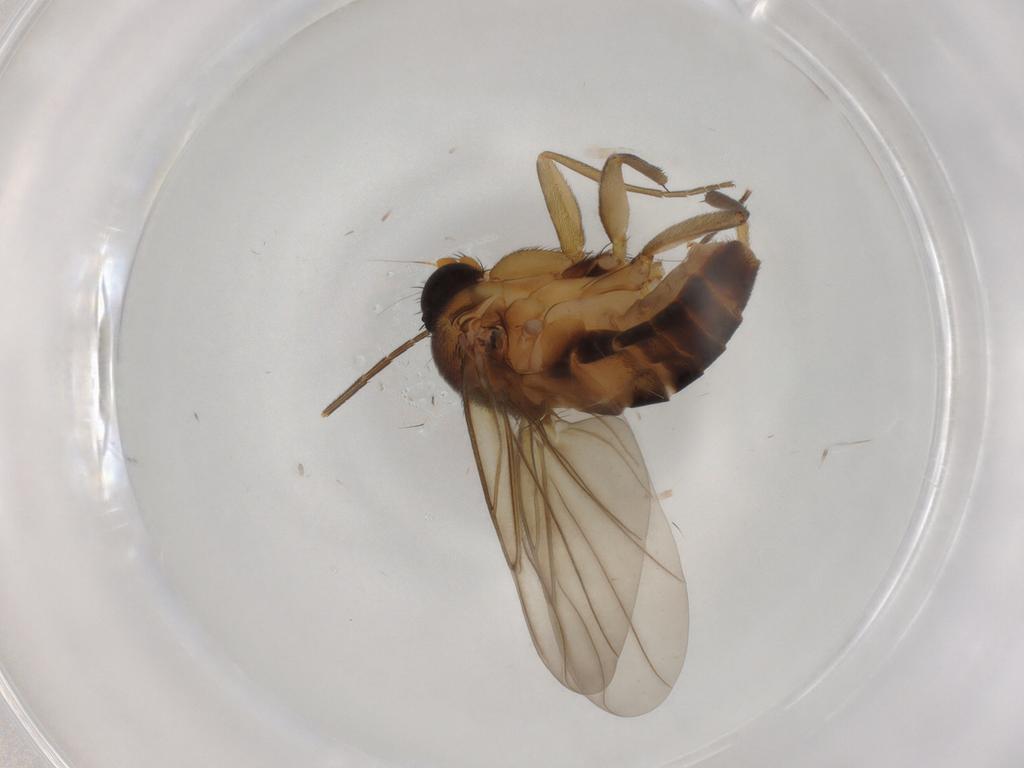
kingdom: Animalia
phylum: Arthropoda
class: Insecta
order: Diptera
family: Phoridae
